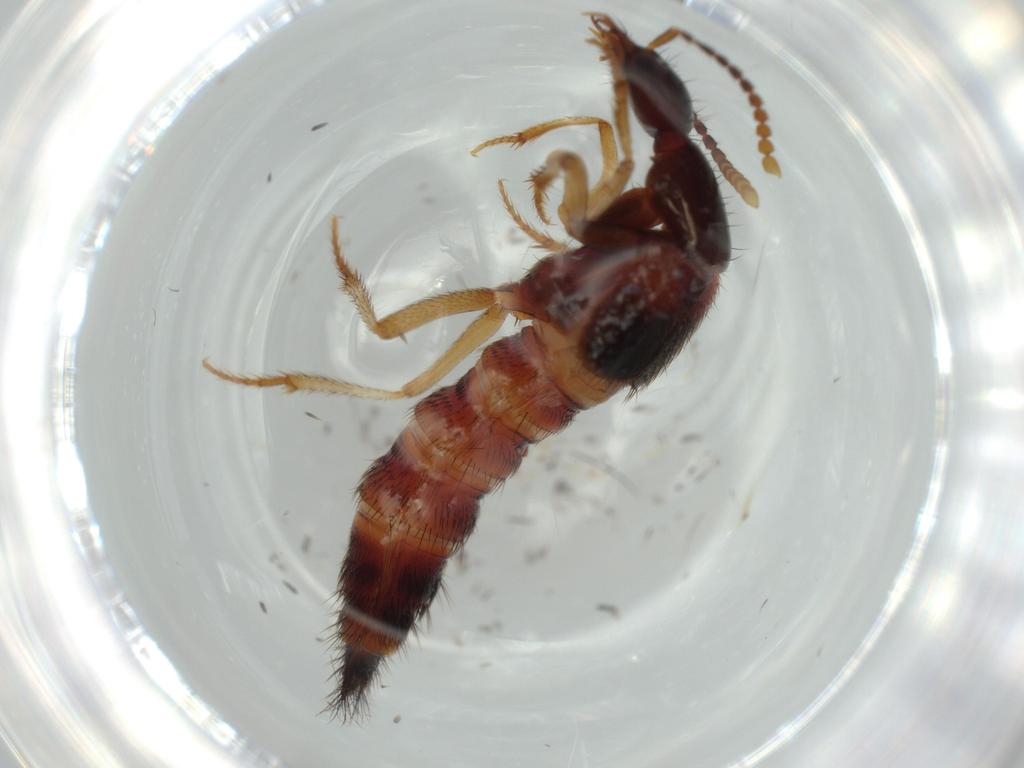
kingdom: Animalia
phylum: Arthropoda
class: Insecta
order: Coleoptera
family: Staphylinidae
